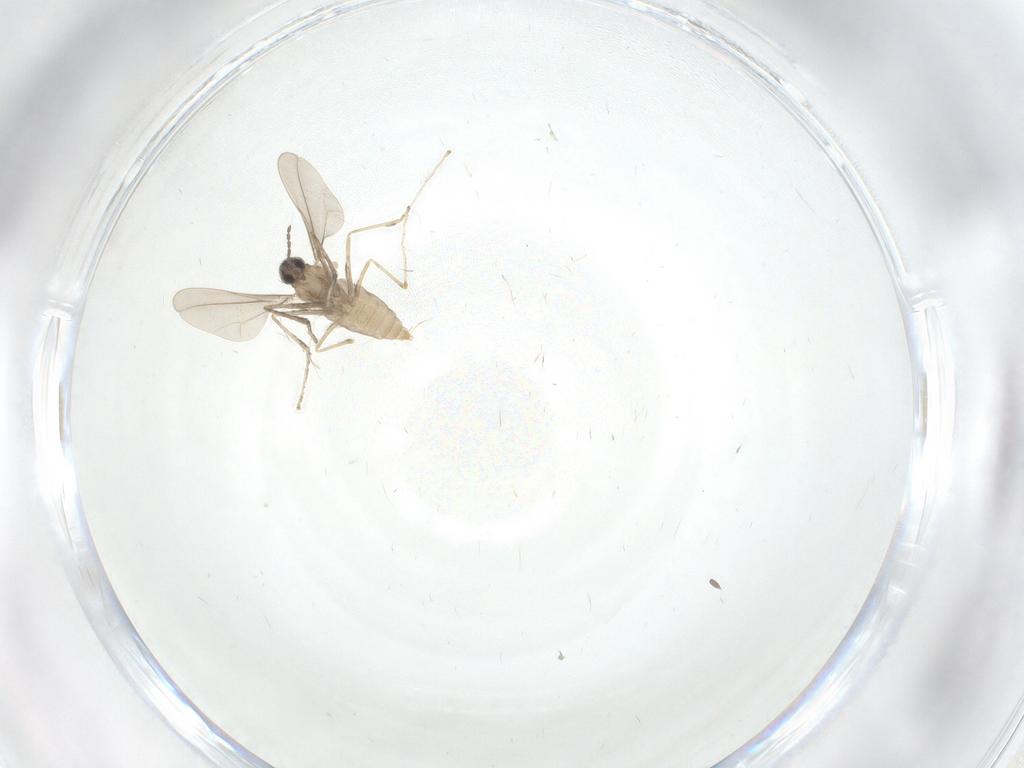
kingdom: Animalia
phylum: Arthropoda
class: Insecta
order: Diptera
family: Cecidomyiidae
